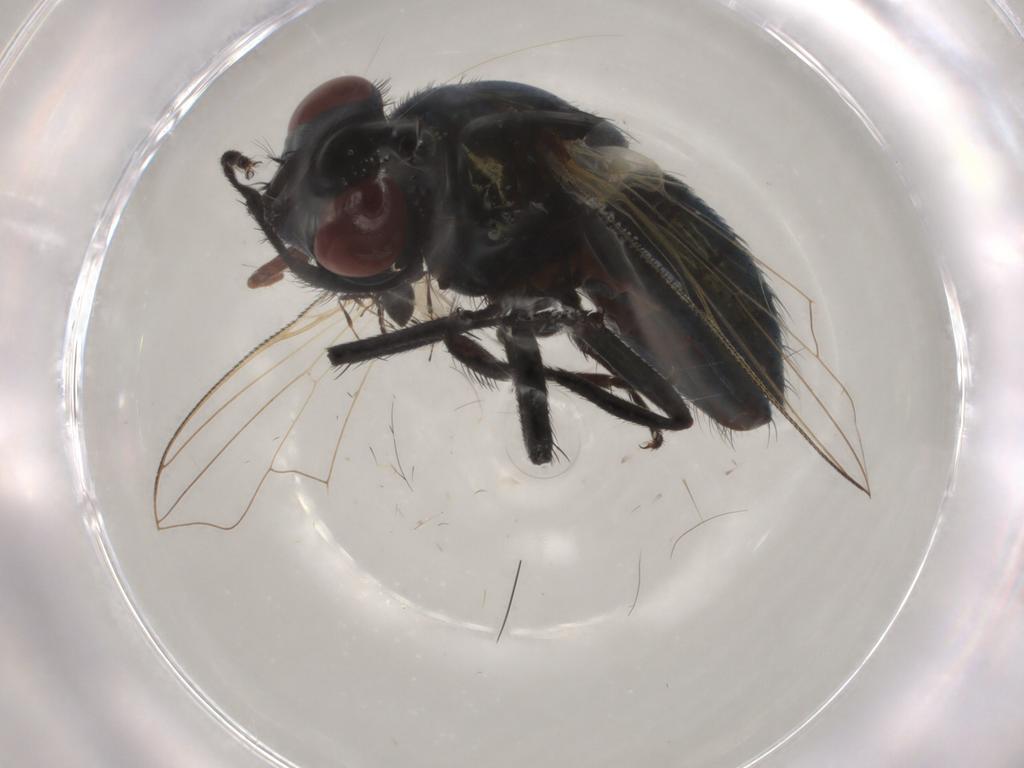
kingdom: Animalia
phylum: Arthropoda
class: Insecta
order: Diptera
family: Muscidae
